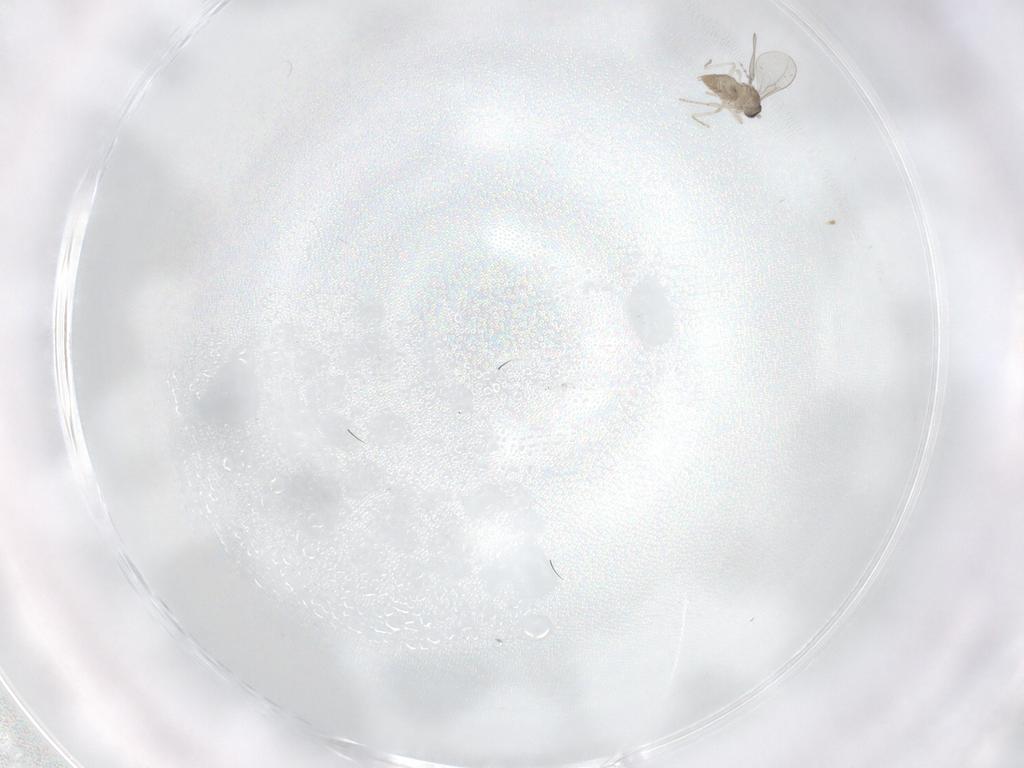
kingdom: Animalia
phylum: Arthropoda
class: Insecta
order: Diptera
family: Cecidomyiidae
